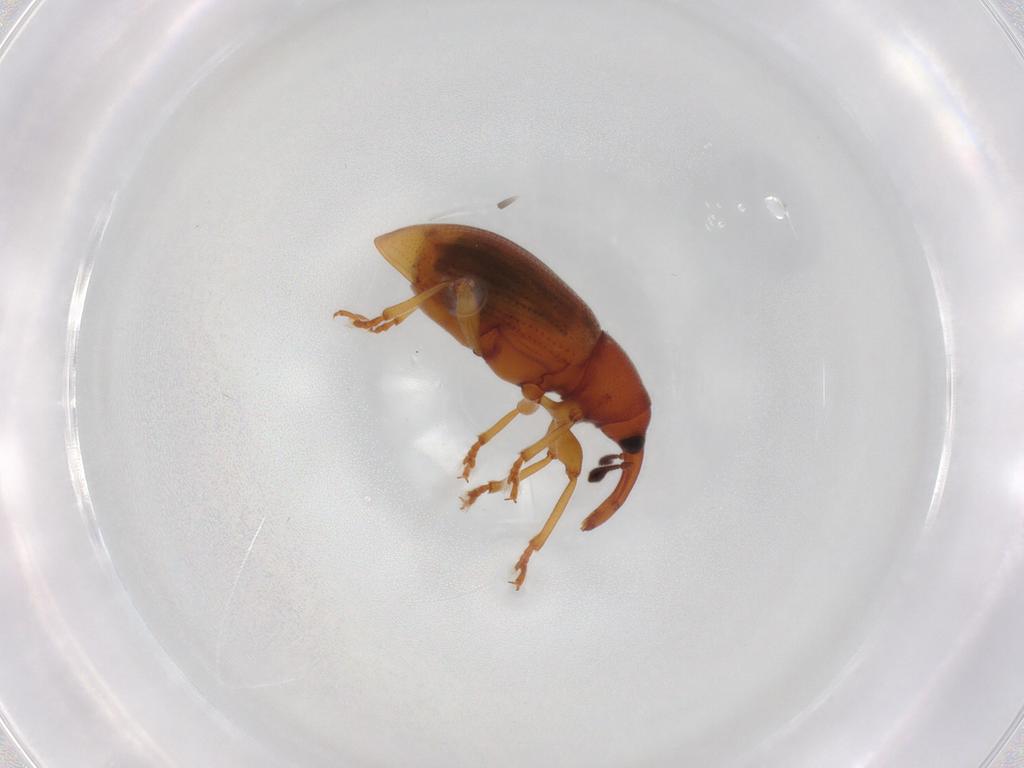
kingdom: Animalia
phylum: Arthropoda
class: Insecta
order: Coleoptera
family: Curculionidae
